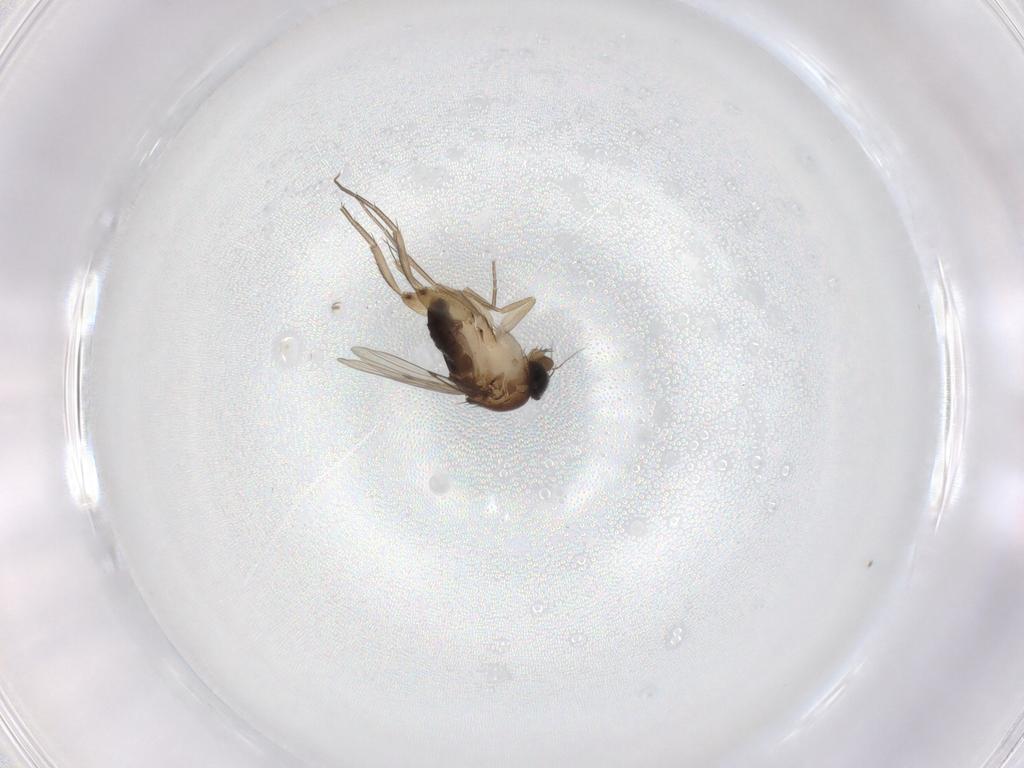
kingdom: Animalia
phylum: Arthropoda
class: Insecta
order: Diptera
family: Phoridae
